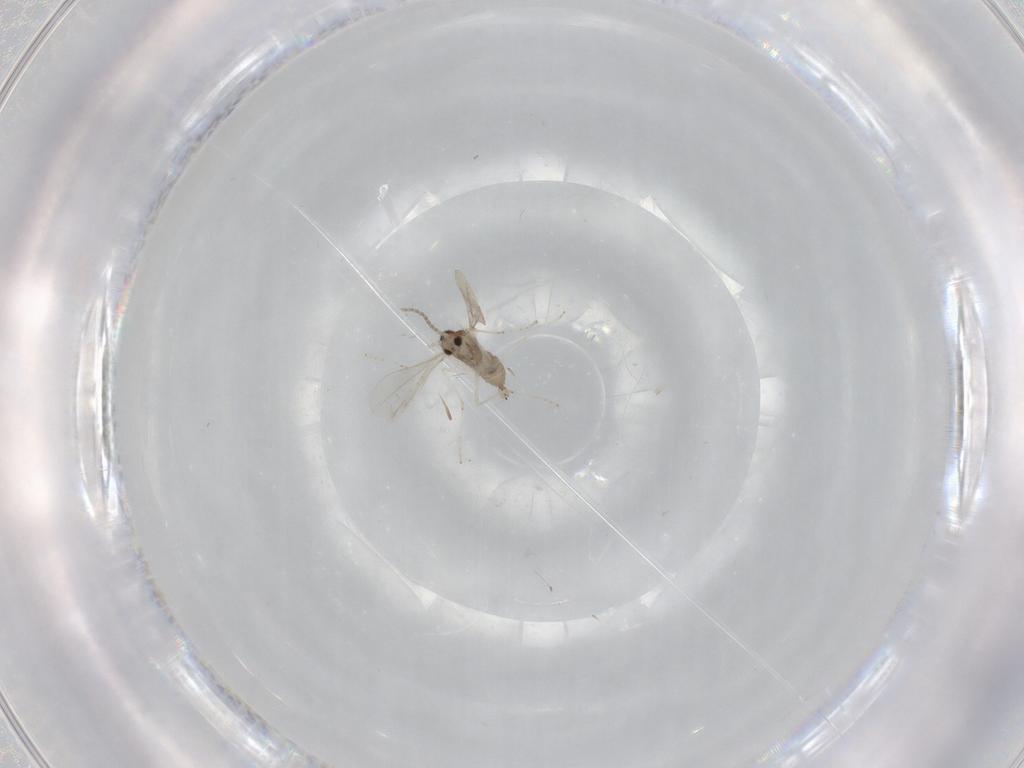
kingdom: Animalia
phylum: Arthropoda
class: Insecta
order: Diptera
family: Cecidomyiidae
